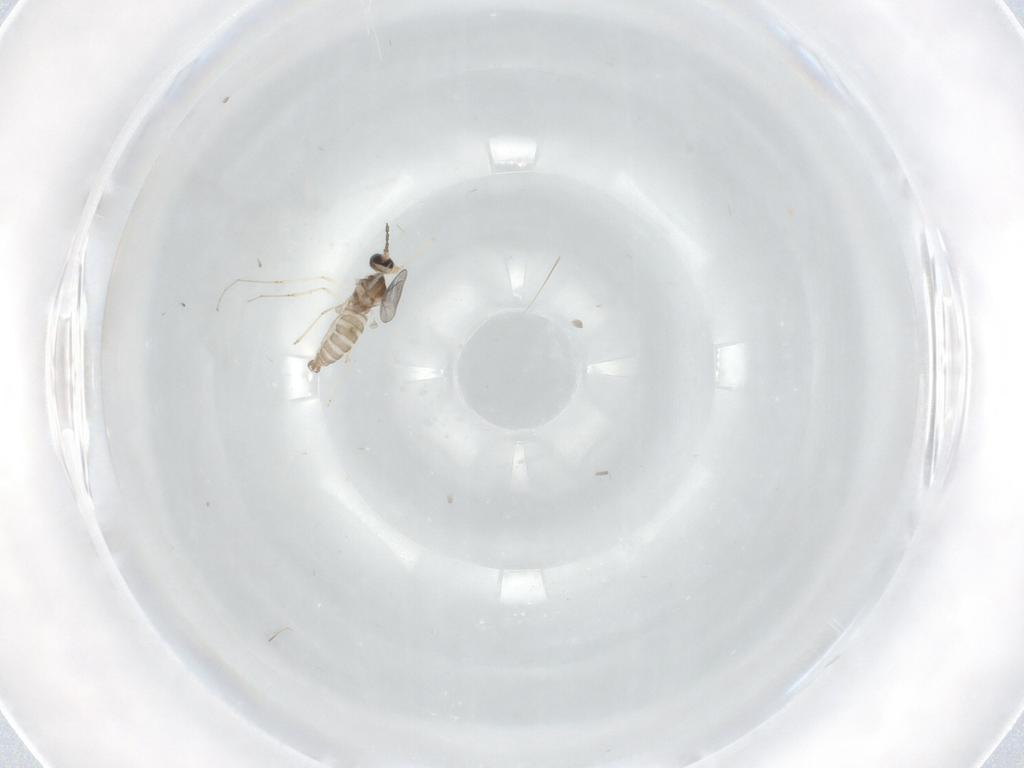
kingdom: Animalia
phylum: Arthropoda
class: Insecta
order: Diptera
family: Cecidomyiidae
